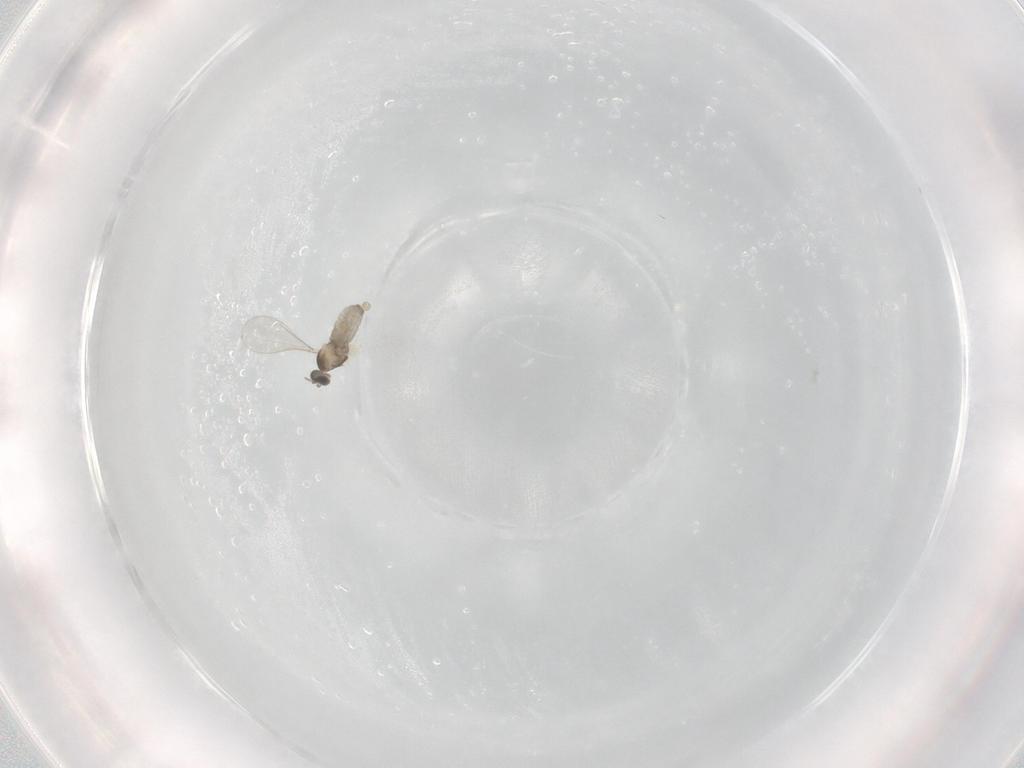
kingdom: Animalia
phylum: Arthropoda
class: Insecta
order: Diptera
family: Cecidomyiidae
